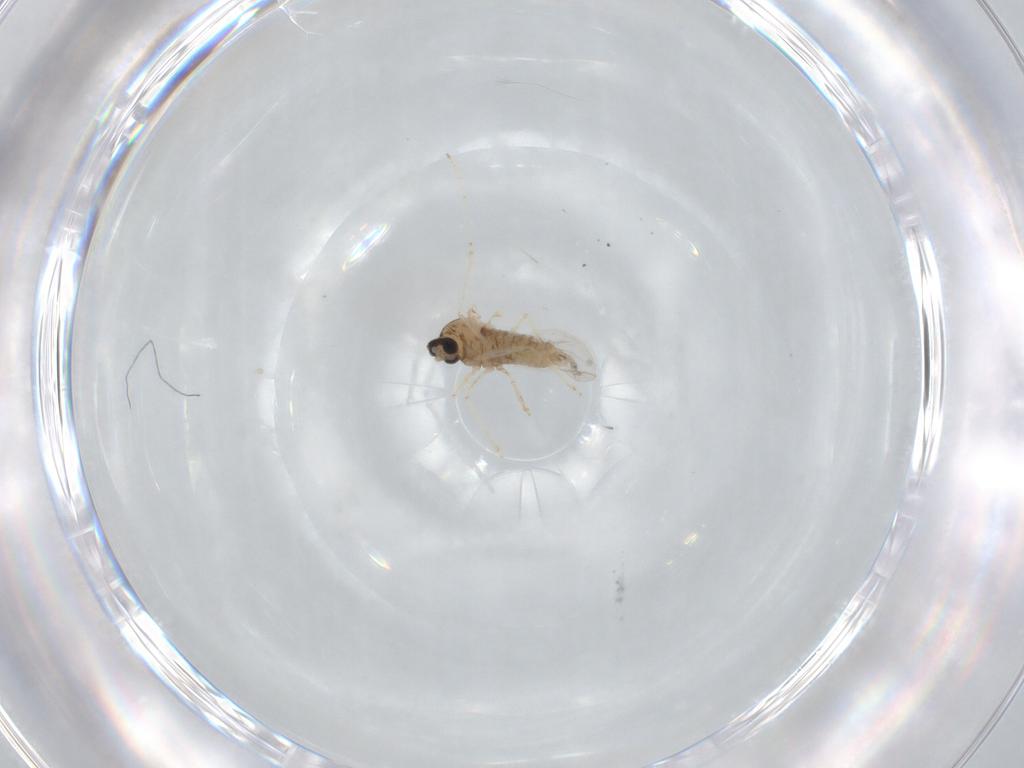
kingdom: Animalia
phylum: Arthropoda
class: Insecta
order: Diptera
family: Cecidomyiidae
